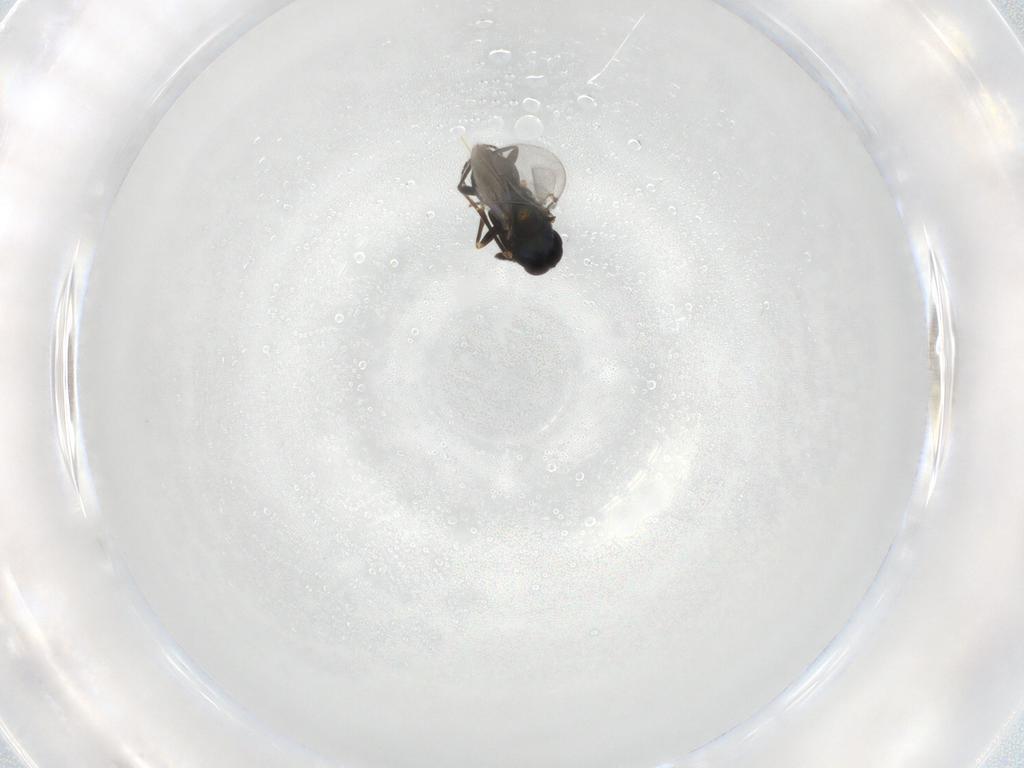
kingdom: Animalia
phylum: Arthropoda
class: Insecta
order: Hymenoptera
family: Encyrtidae
